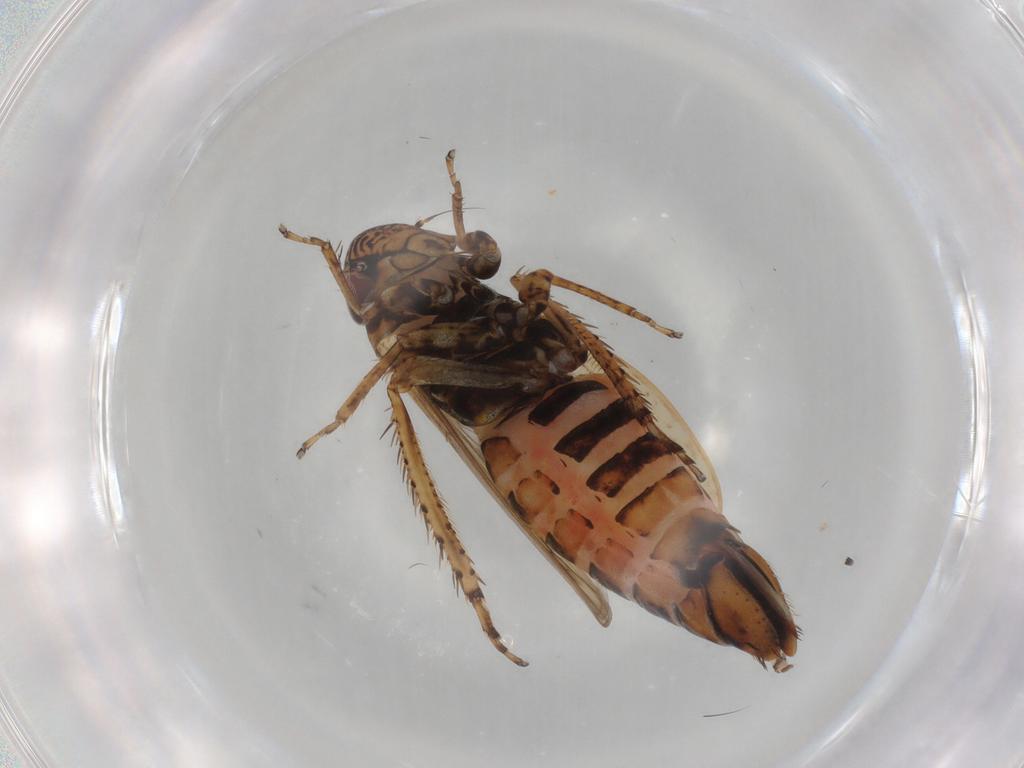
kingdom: Animalia
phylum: Arthropoda
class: Insecta
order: Hemiptera
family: Cicadellidae
